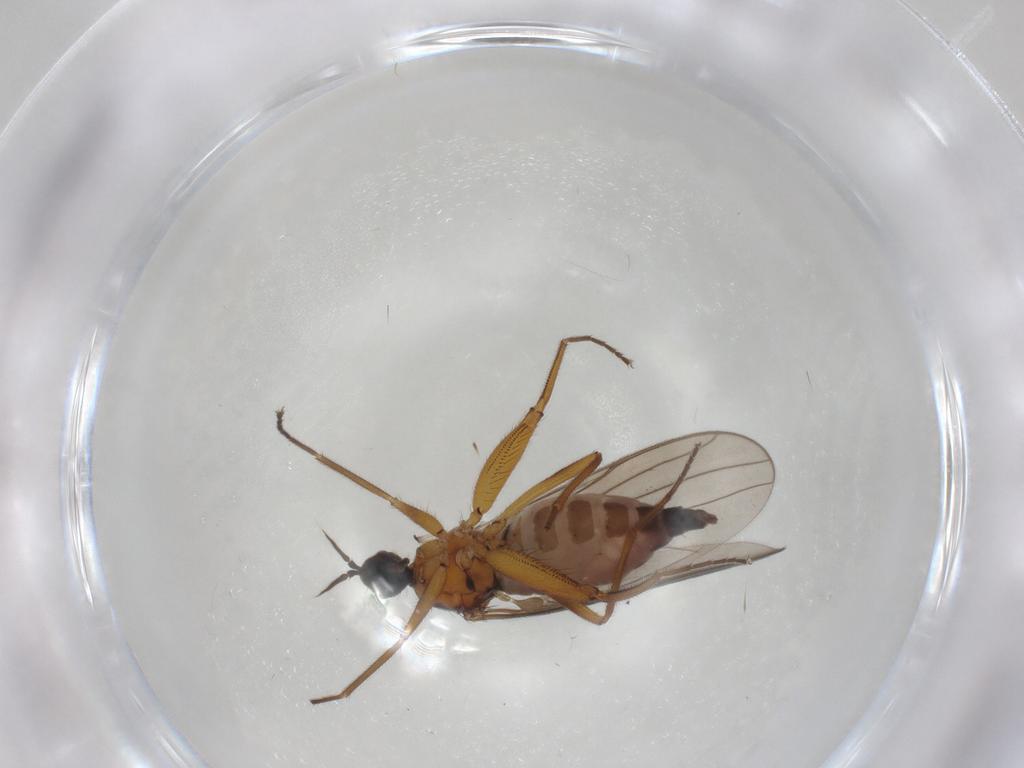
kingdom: Animalia
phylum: Arthropoda
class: Insecta
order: Diptera
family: Hybotidae
